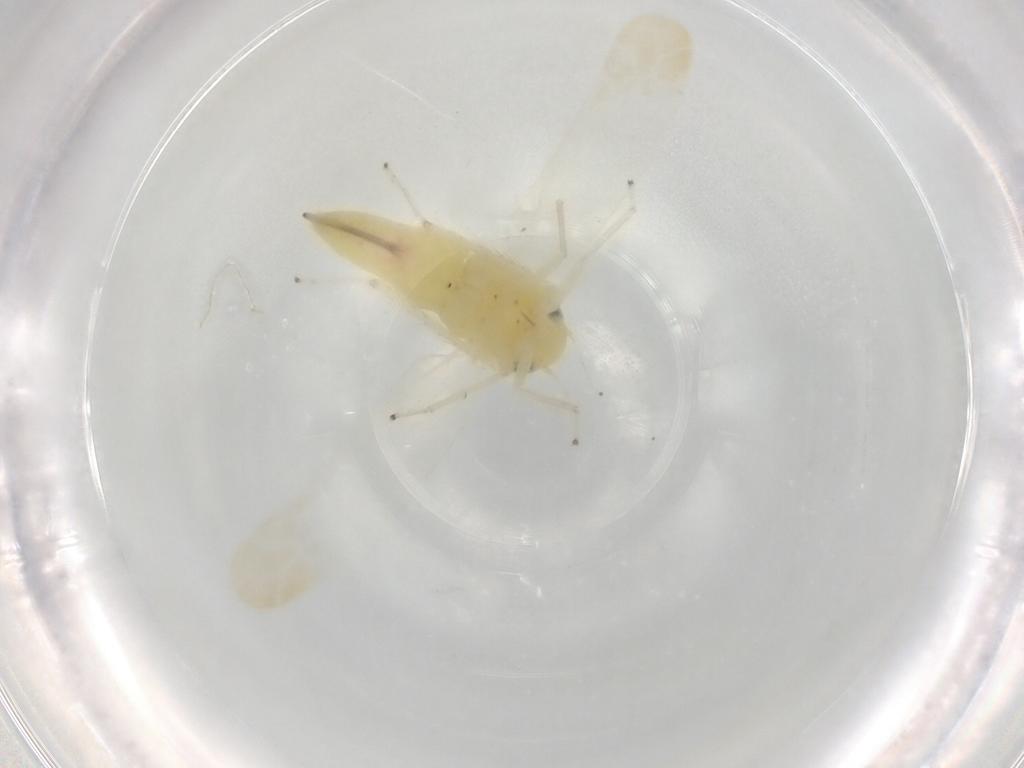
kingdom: Animalia
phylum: Arthropoda
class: Insecta
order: Hemiptera
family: Cicadellidae
